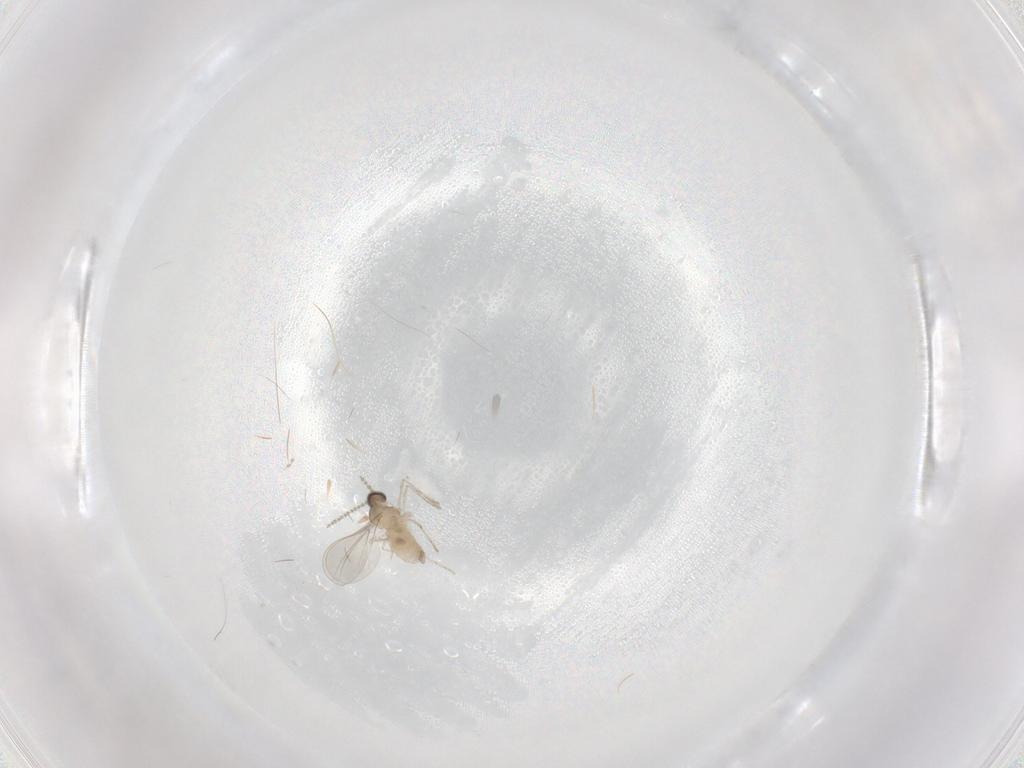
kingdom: Animalia
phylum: Arthropoda
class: Insecta
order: Diptera
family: Cecidomyiidae
